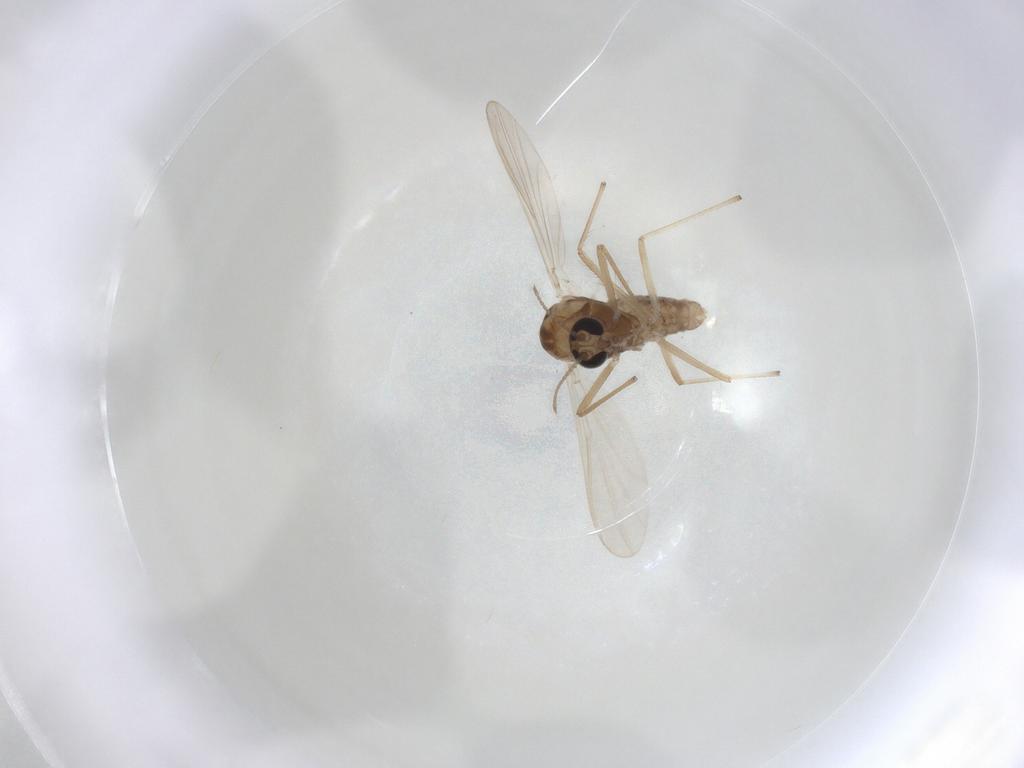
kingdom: Animalia
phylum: Arthropoda
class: Insecta
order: Diptera
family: Chironomidae
